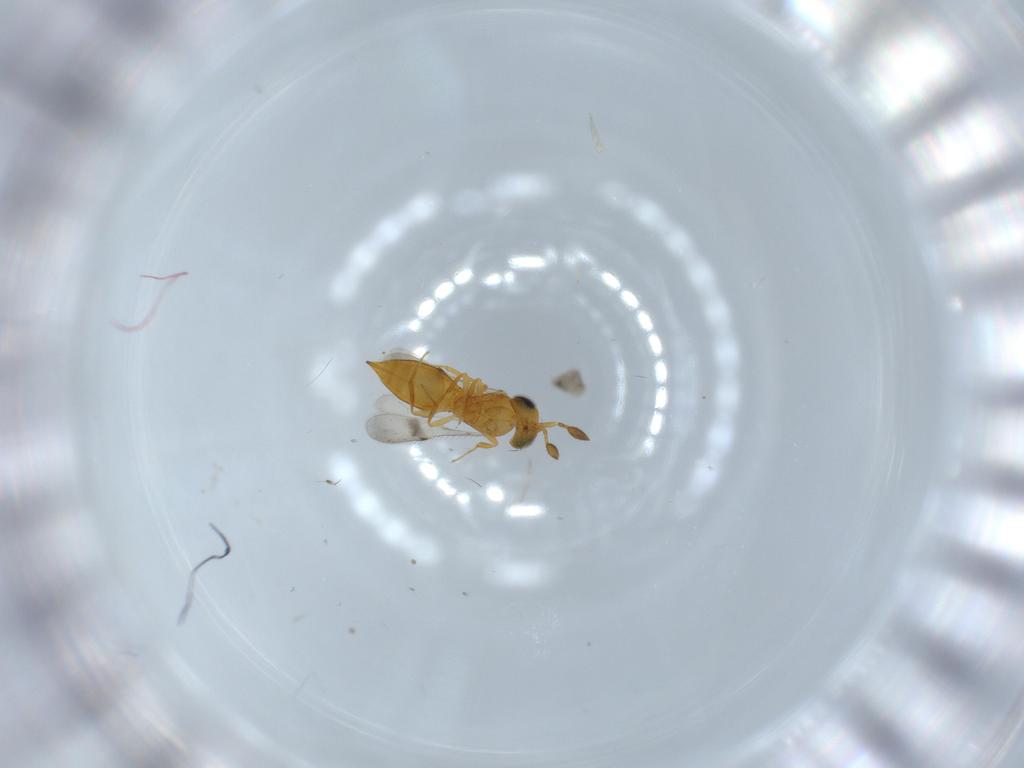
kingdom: Animalia
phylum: Arthropoda
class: Insecta
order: Hymenoptera
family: Scelionidae
